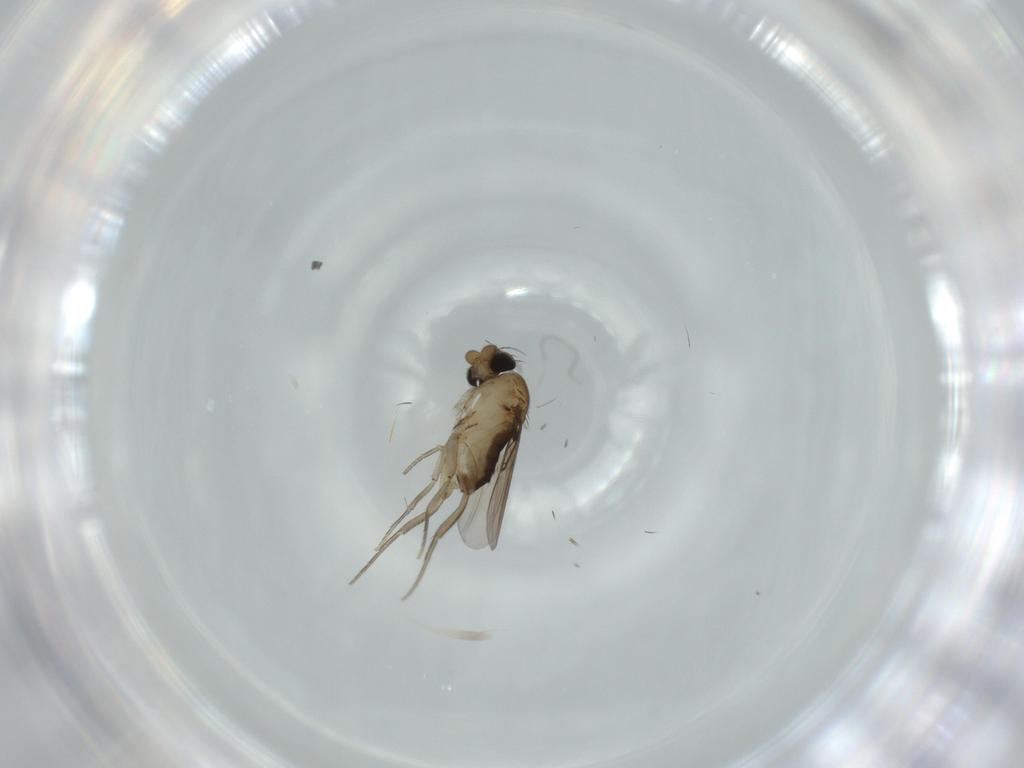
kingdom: Animalia
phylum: Arthropoda
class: Insecta
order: Diptera
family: Phoridae
